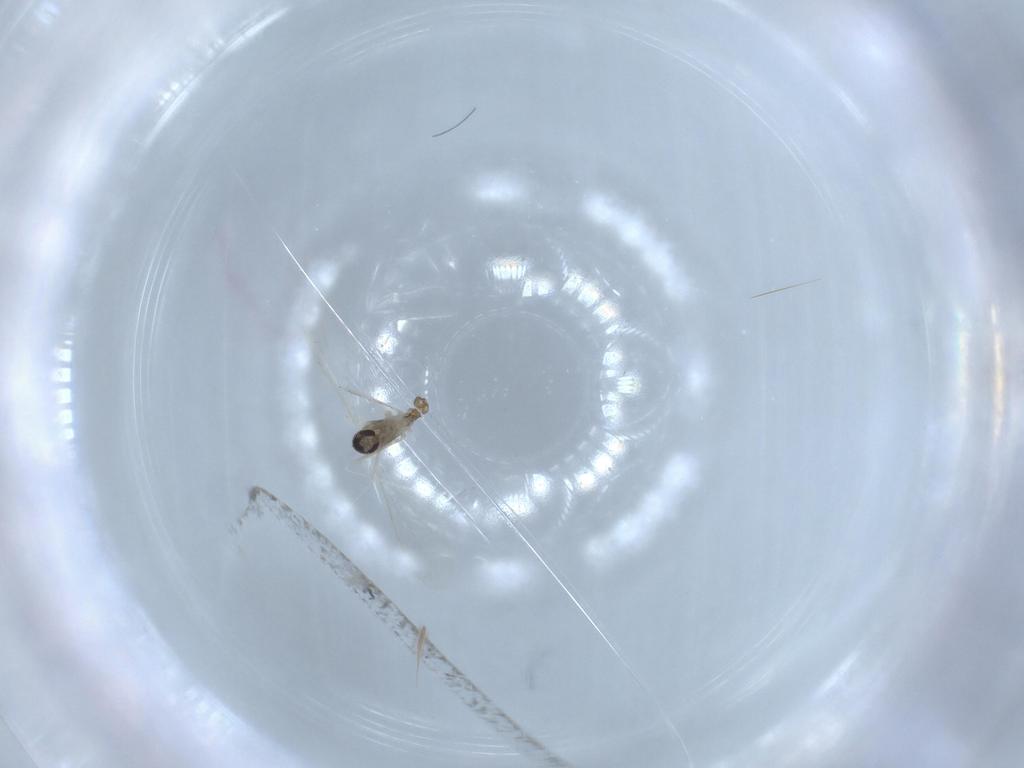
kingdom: Animalia
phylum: Arthropoda
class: Insecta
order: Diptera
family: Cecidomyiidae
